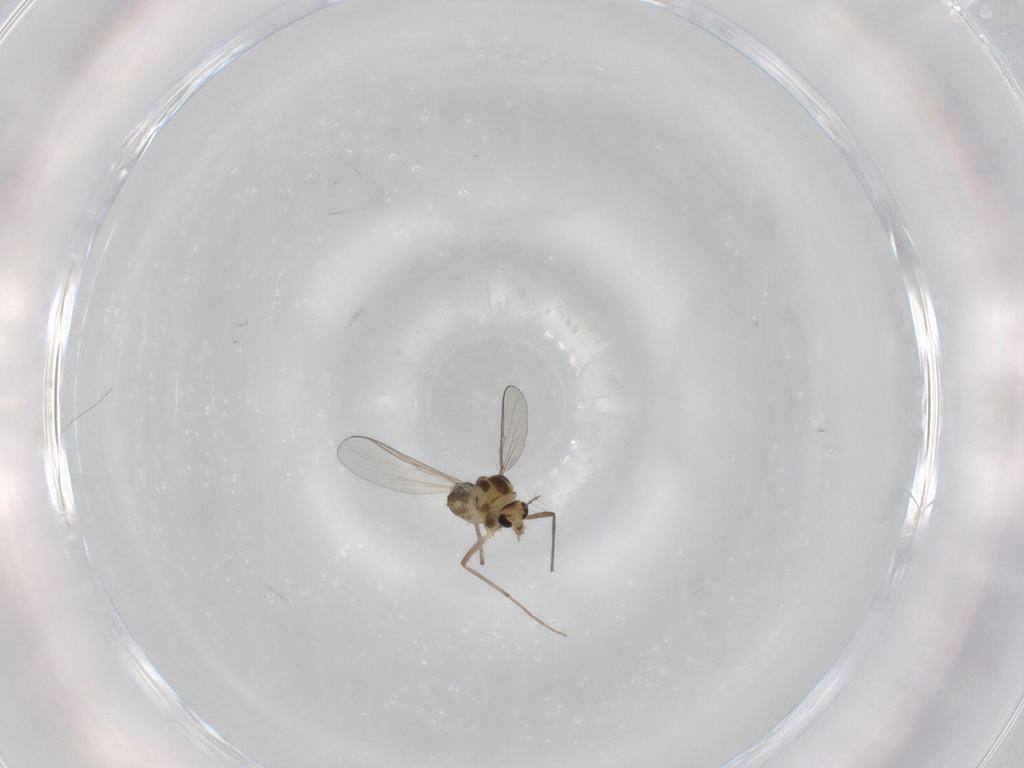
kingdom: Animalia
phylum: Arthropoda
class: Insecta
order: Diptera
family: Chironomidae
